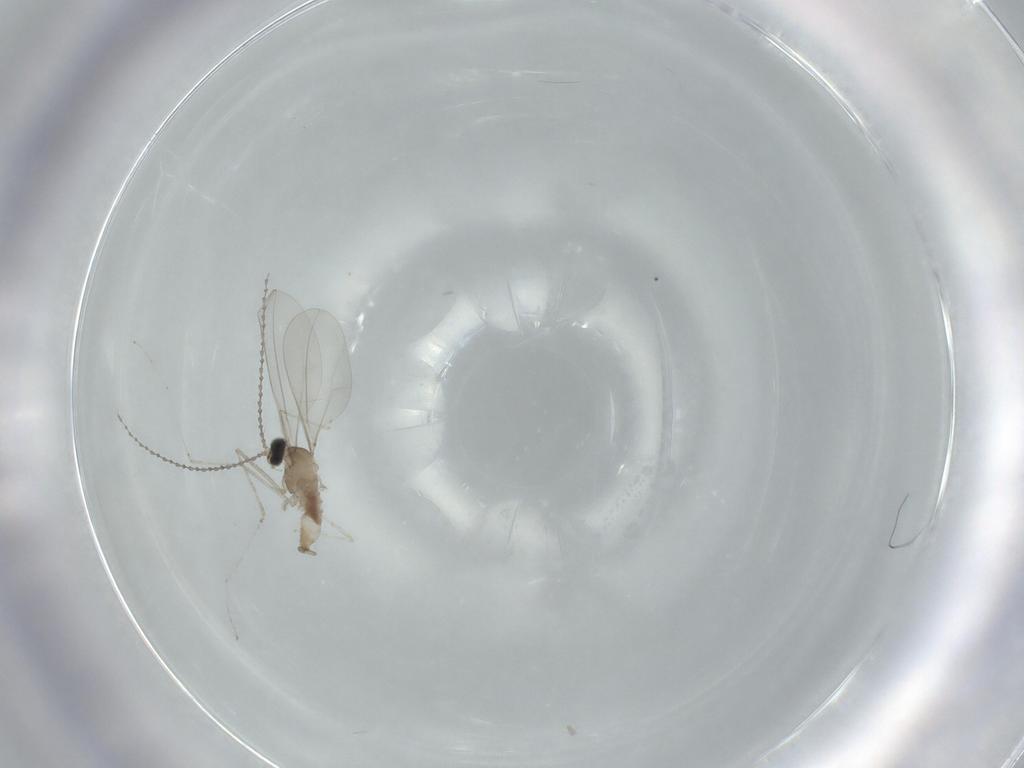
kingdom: Animalia
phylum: Arthropoda
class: Insecta
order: Diptera
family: Cecidomyiidae
